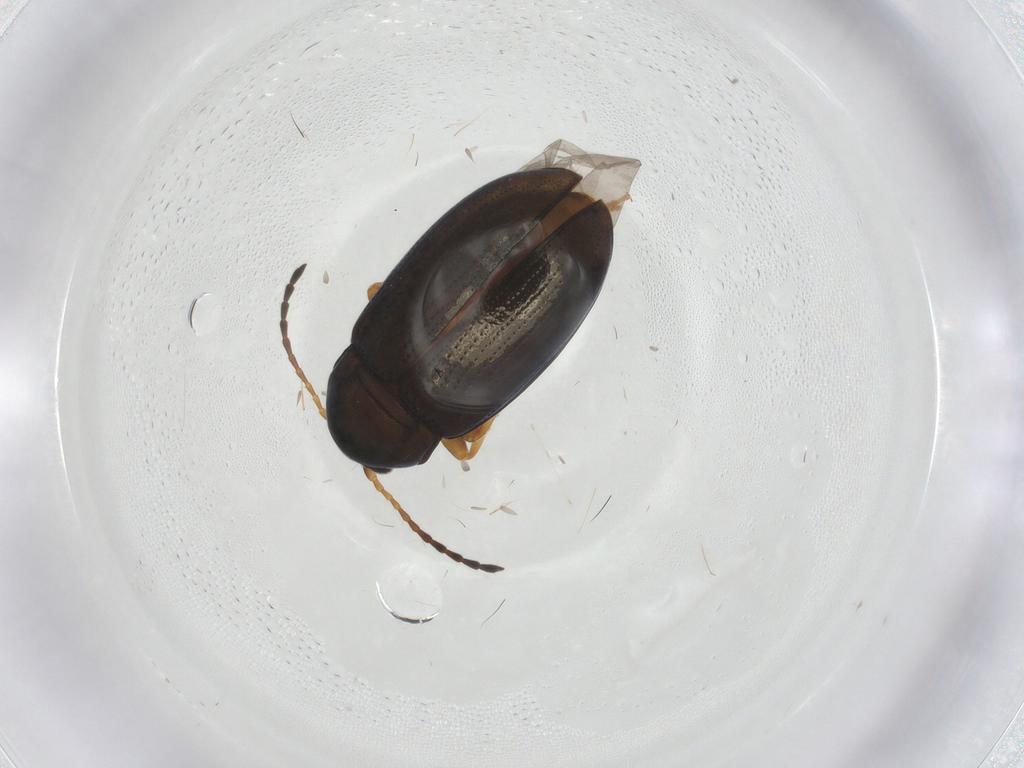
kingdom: Animalia
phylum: Arthropoda
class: Insecta
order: Coleoptera
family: Chrysomelidae
